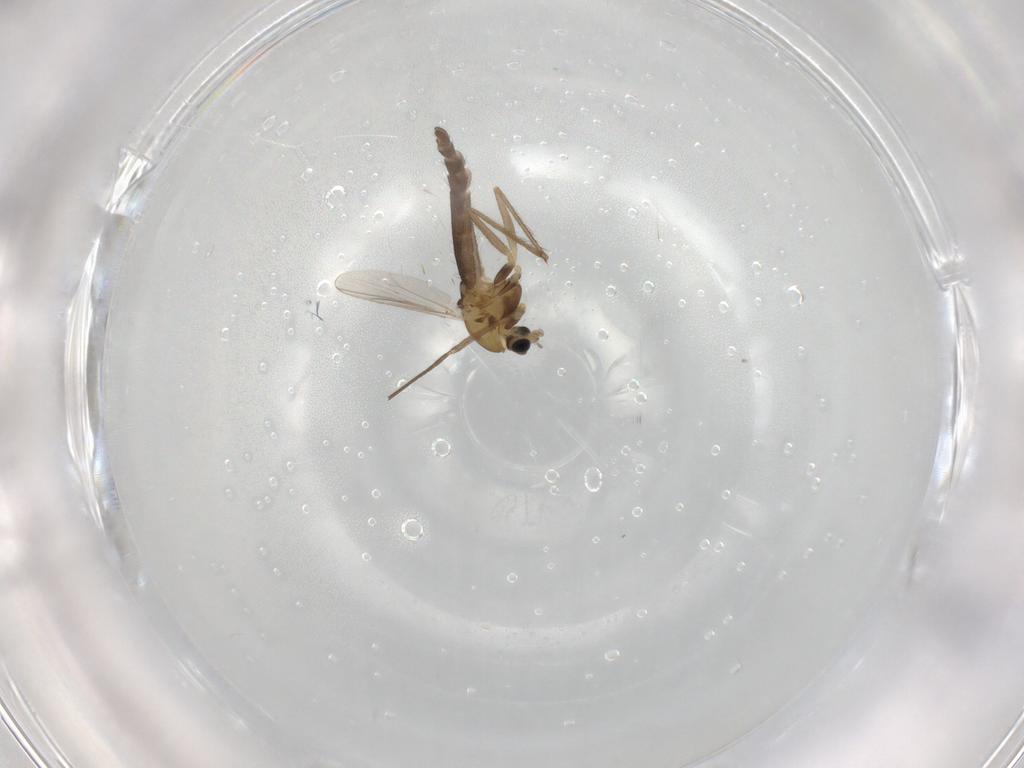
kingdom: Animalia
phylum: Arthropoda
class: Insecta
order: Diptera
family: Chironomidae
